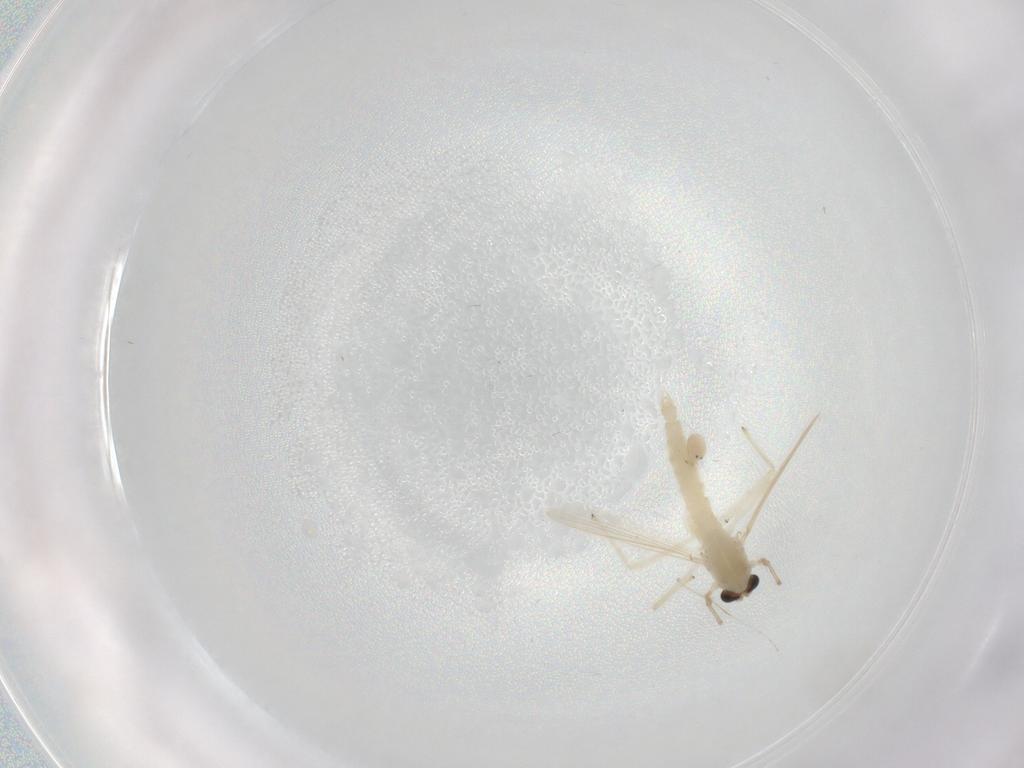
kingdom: Animalia
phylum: Arthropoda
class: Insecta
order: Diptera
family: Chironomidae
